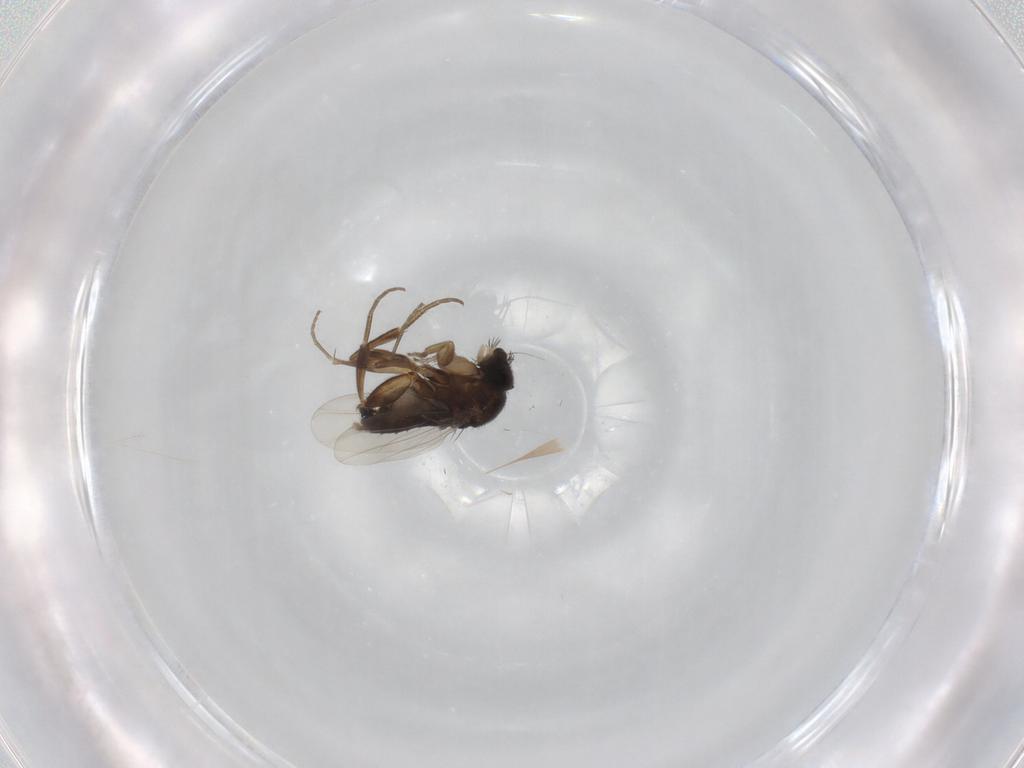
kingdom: Animalia
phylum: Arthropoda
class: Insecta
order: Diptera
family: Phoridae
